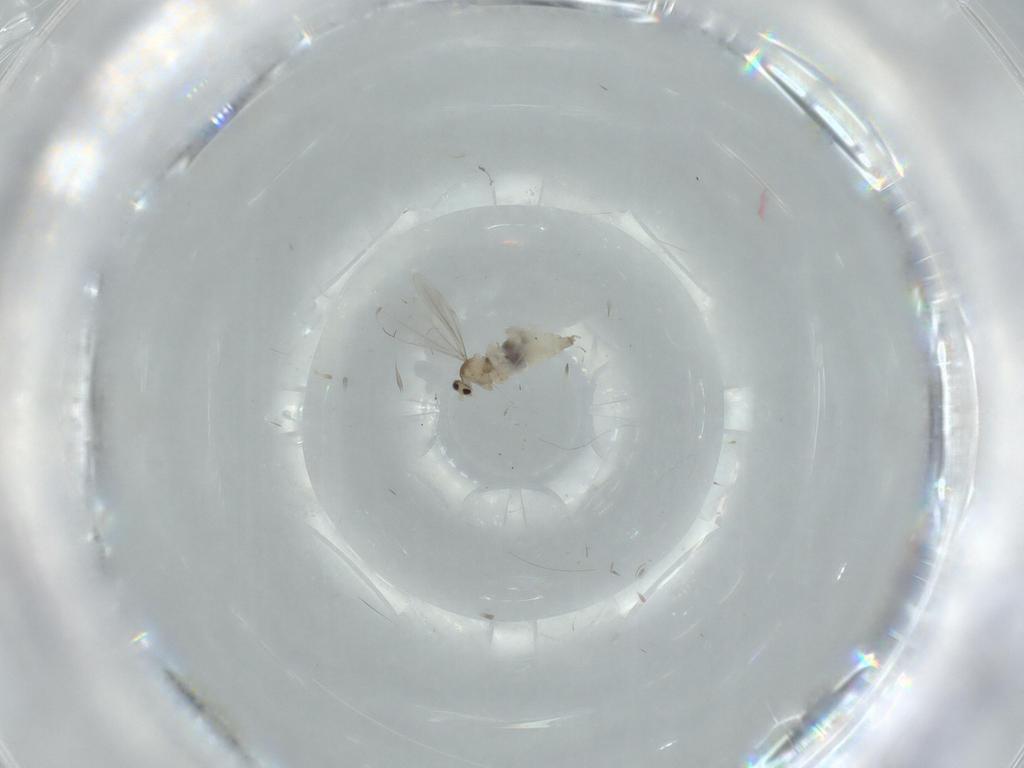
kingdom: Animalia
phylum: Arthropoda
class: Insecta
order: Diptera
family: Cecidomyiidae
